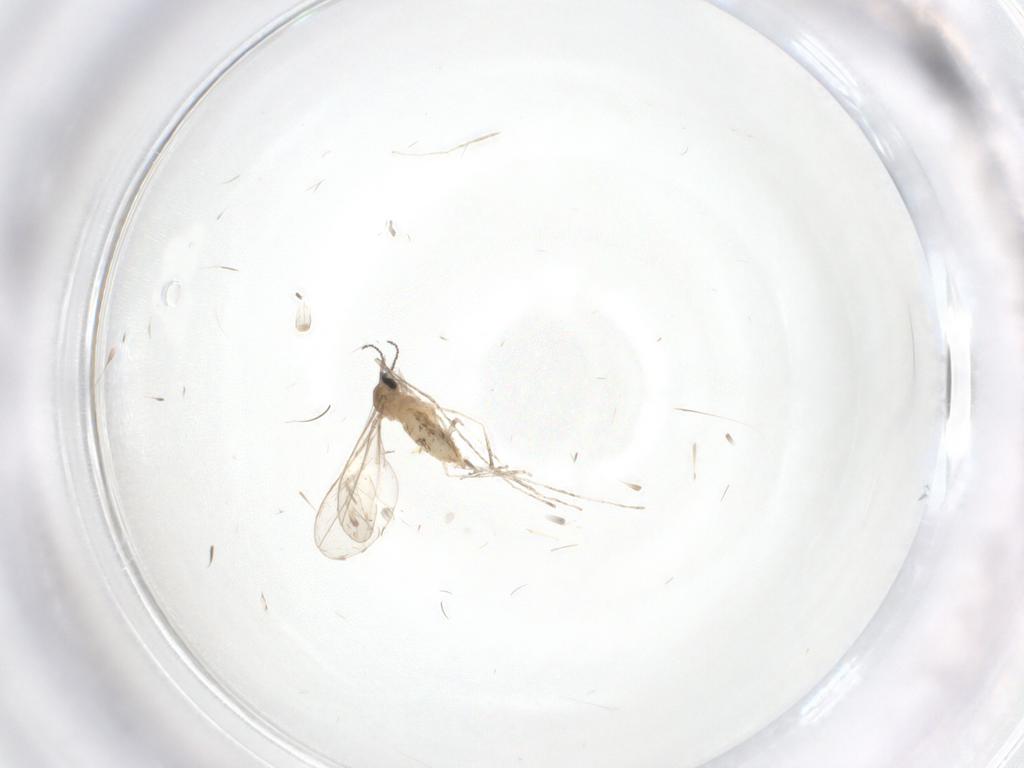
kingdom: Animalia
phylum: Arthropoda
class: Insecta
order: Diptera
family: Cecidomyiidae
